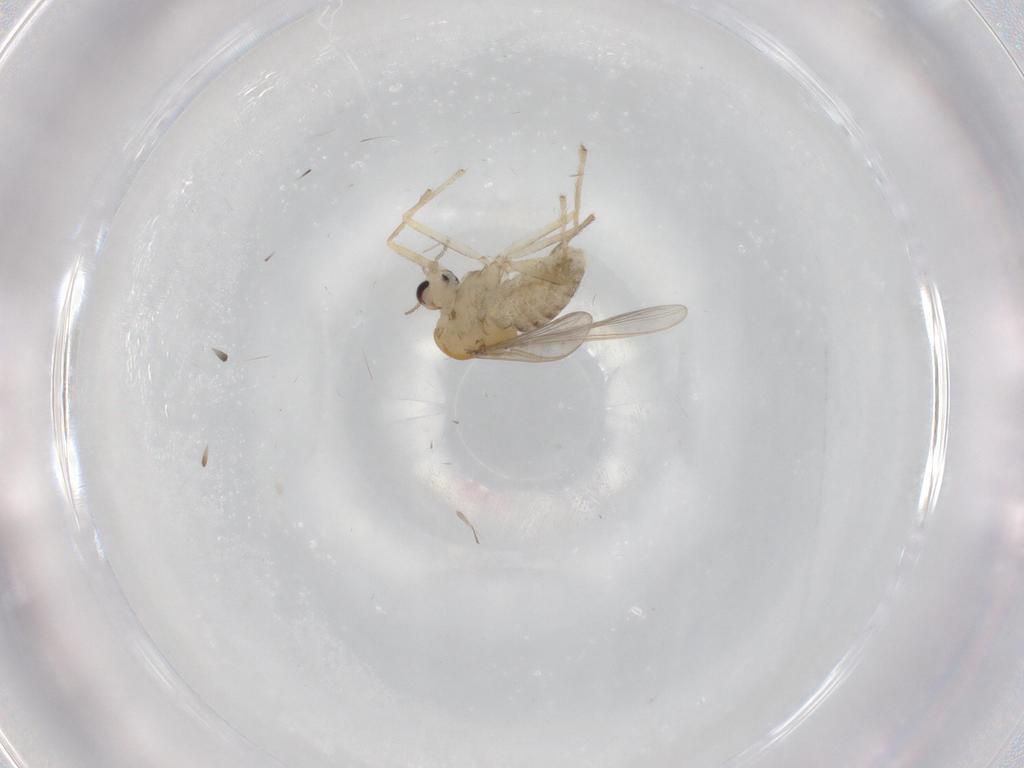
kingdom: Animalia
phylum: Arthropoda
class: Insecta
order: Diptera
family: Chironomidae
